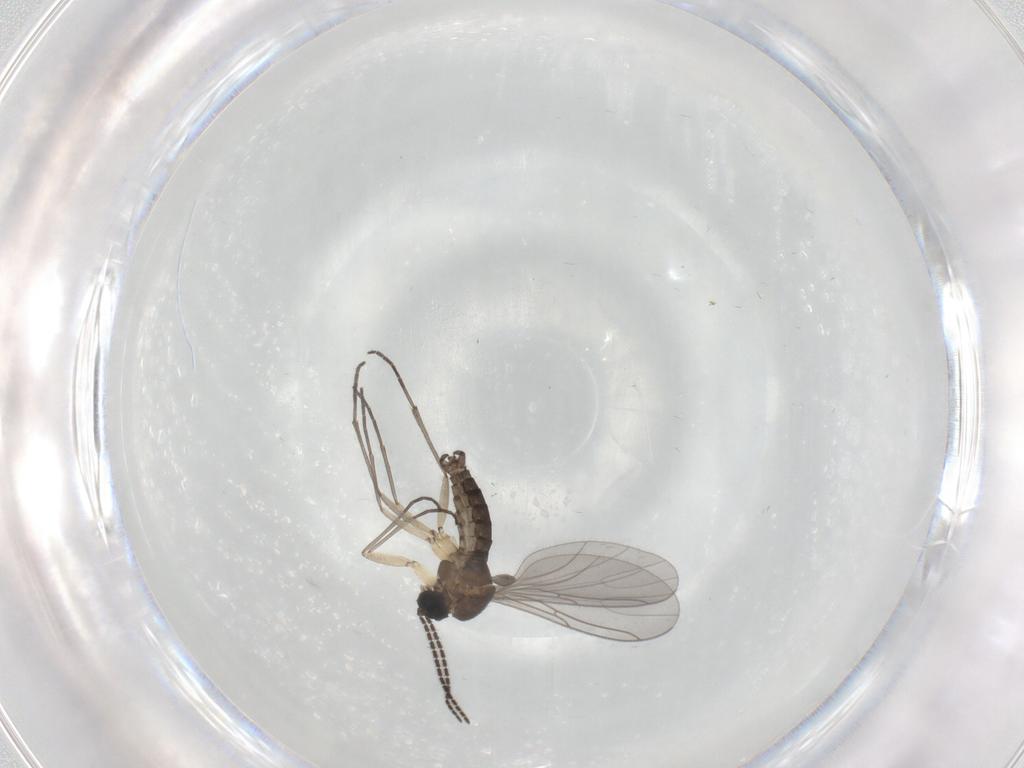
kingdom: Animalia
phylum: Arthropoda
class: Insecta
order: Diptera
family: Sciaridae
